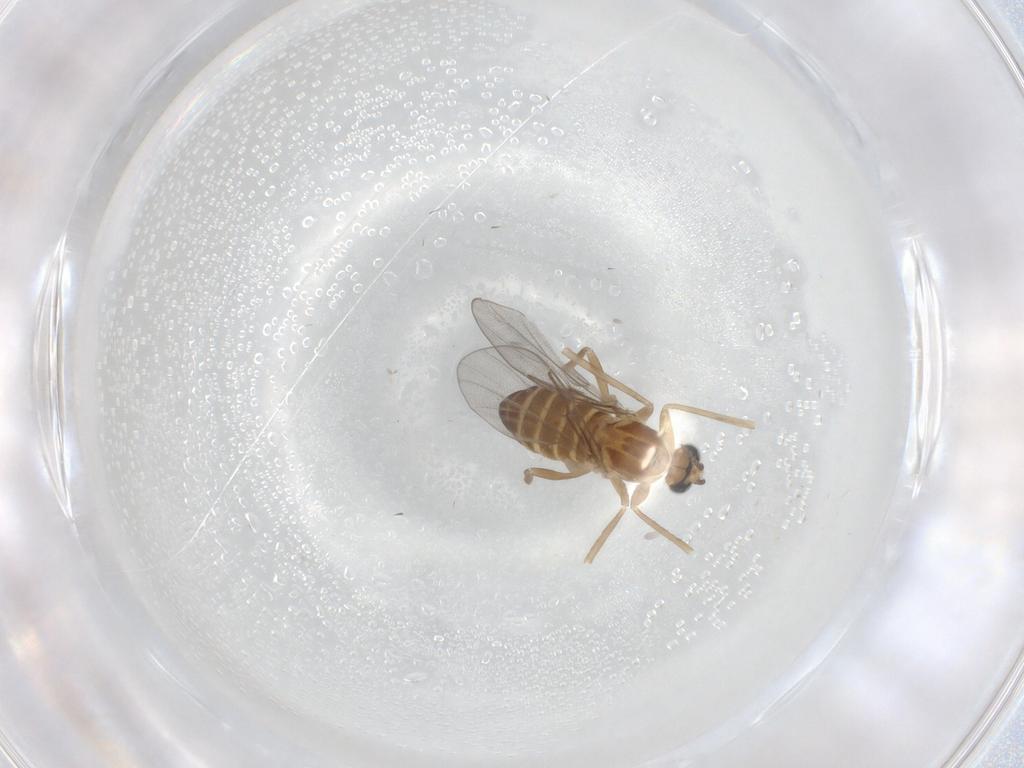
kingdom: Animalia
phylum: Arthropoda
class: Insecta
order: Diptera
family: Cecidomyiidae
